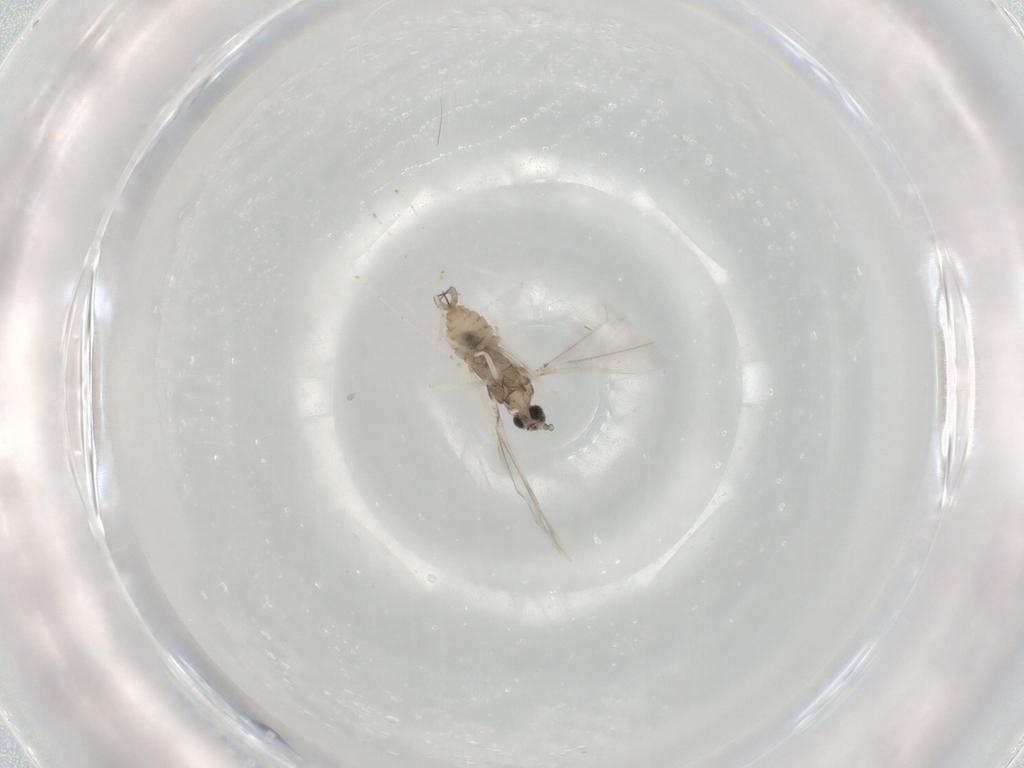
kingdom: Animalia
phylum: Arthropoda
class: Insecta
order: Diptera
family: Cecidomyiidae
